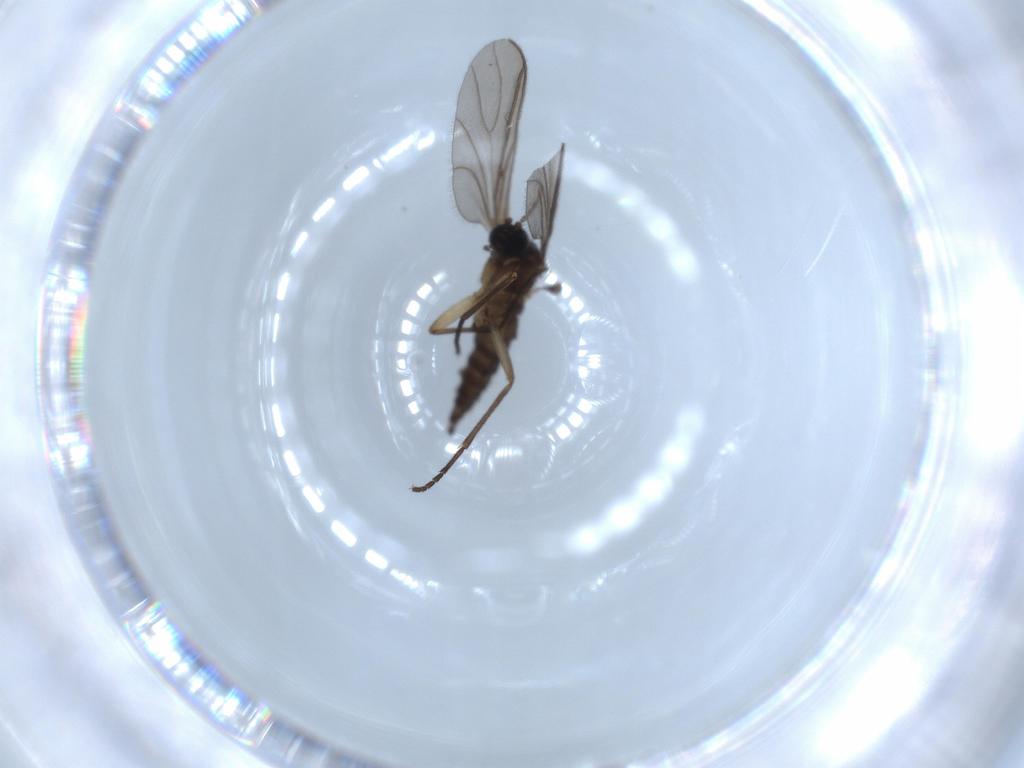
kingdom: Animalia
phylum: Arthropoda
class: Insecta
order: Diptera
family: Sciaridae
